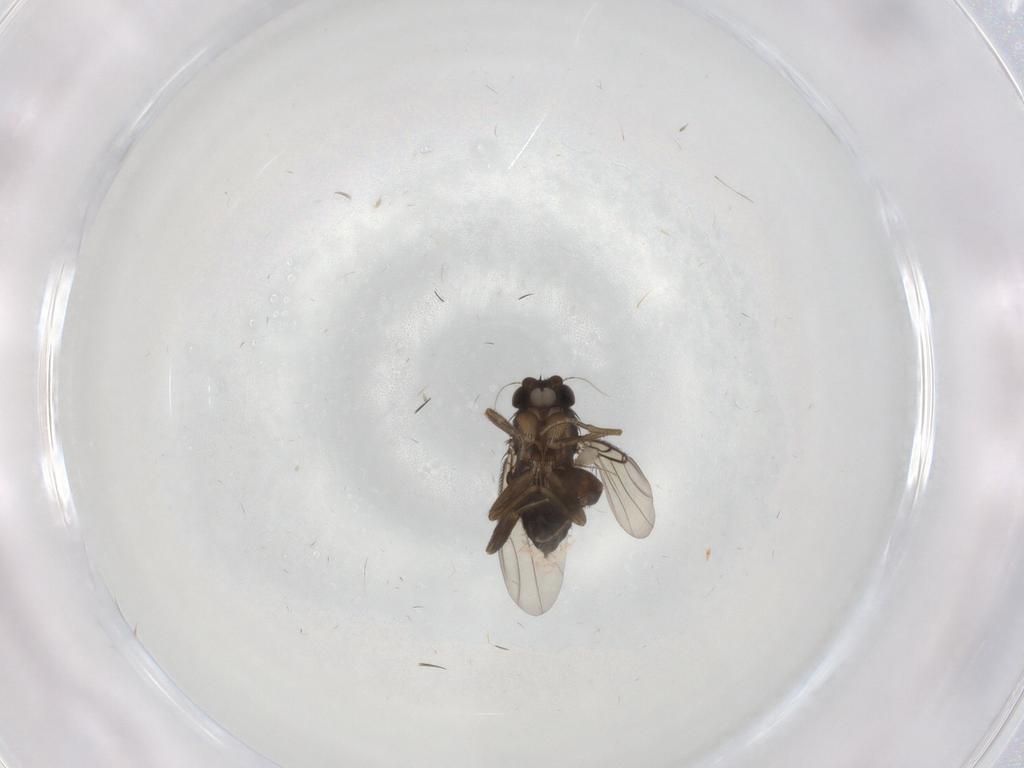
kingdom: Animalia
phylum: Arthropoda
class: Insecta
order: Diptera
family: Phoridae
